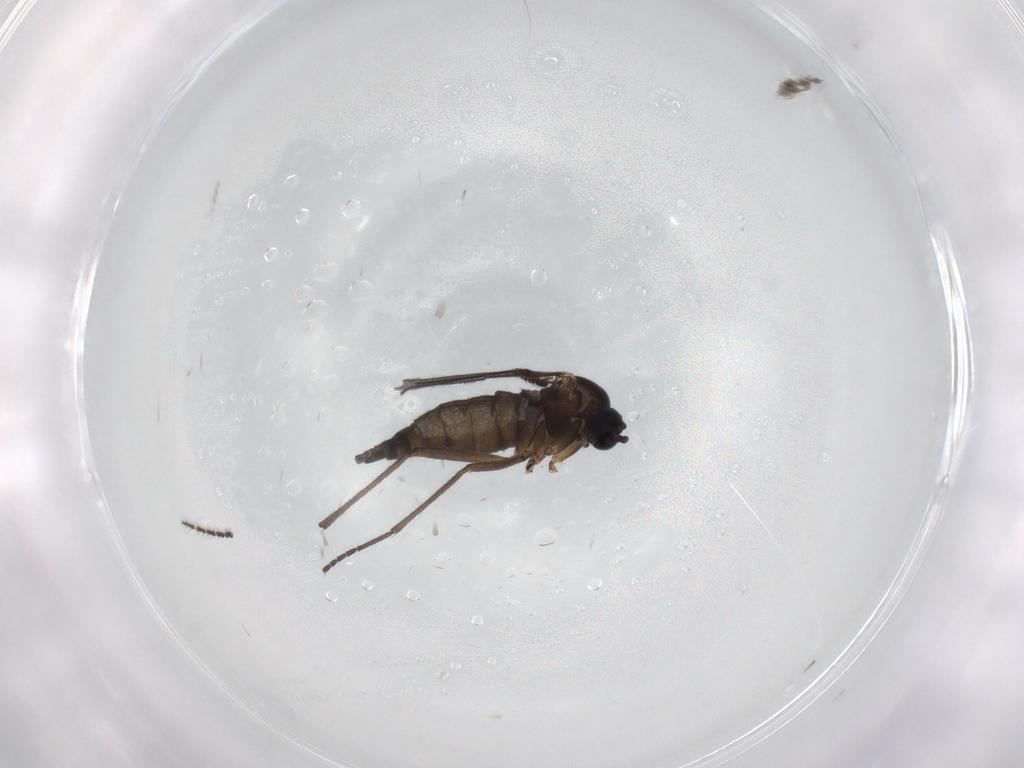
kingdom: Animalia
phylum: Arthropoda
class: Insecta
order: Diptera
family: Sciaridae
